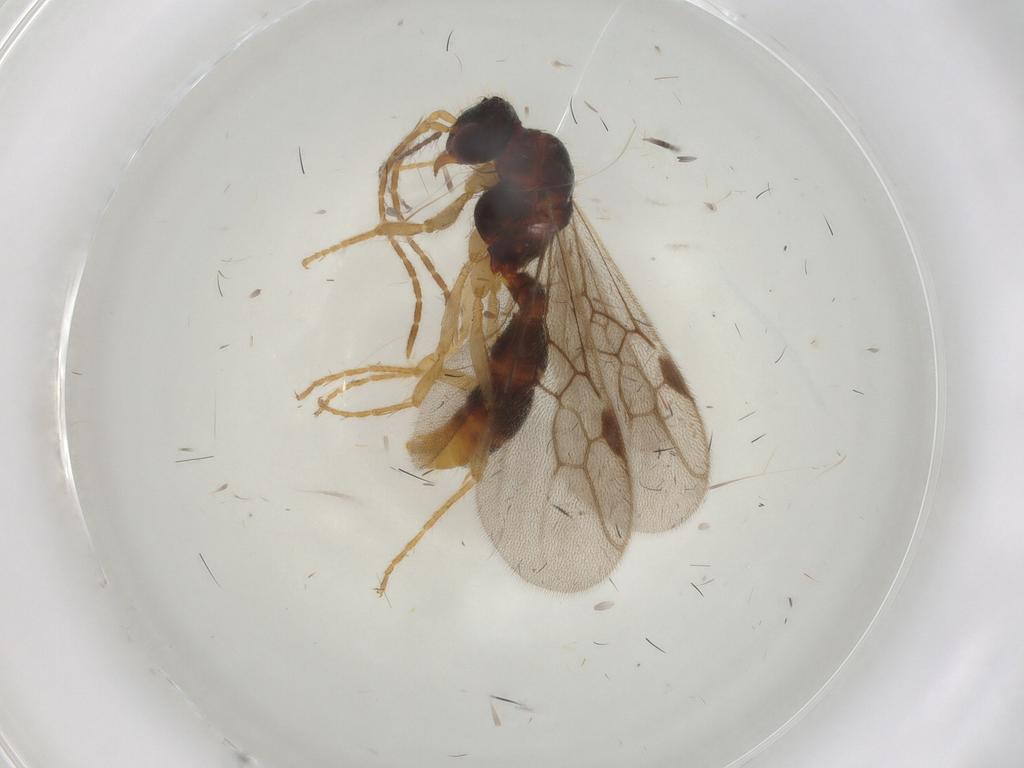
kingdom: Animalia
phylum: Arthropoda
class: Insecta
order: Hymenoptera
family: Formicidae
